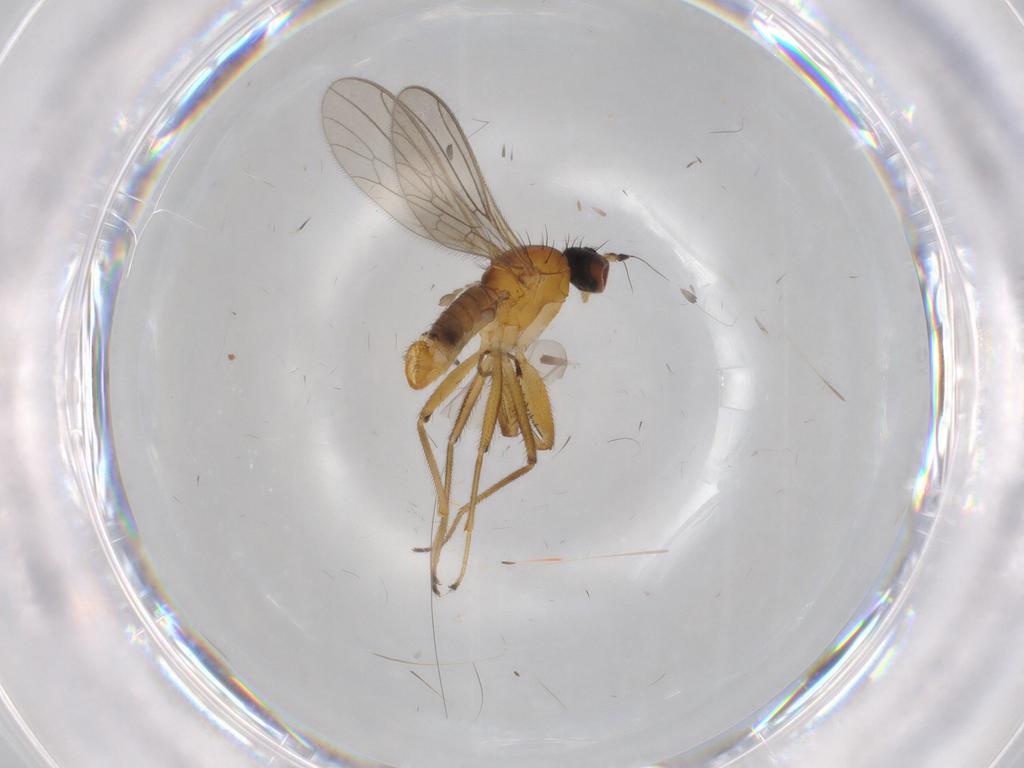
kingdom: Animalia
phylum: Arthropoda
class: Insecta
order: Diptera
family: Empididae
